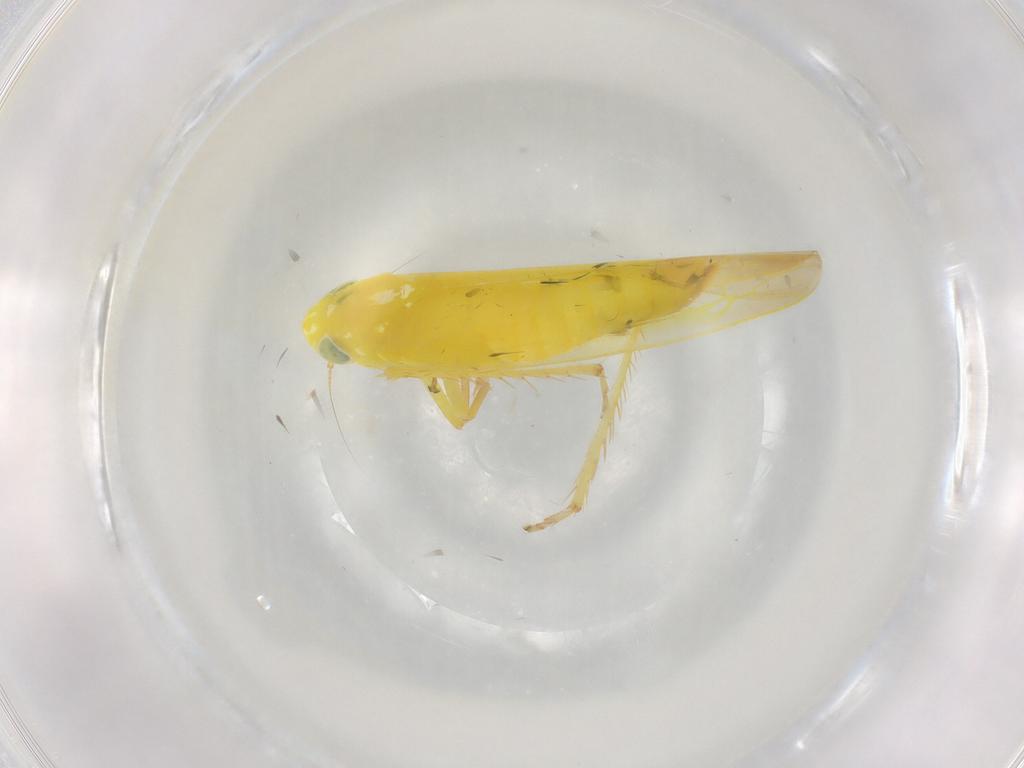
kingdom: Animalia
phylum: Arthropoda
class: Insecta
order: Hemiptera
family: Cicadellidae
